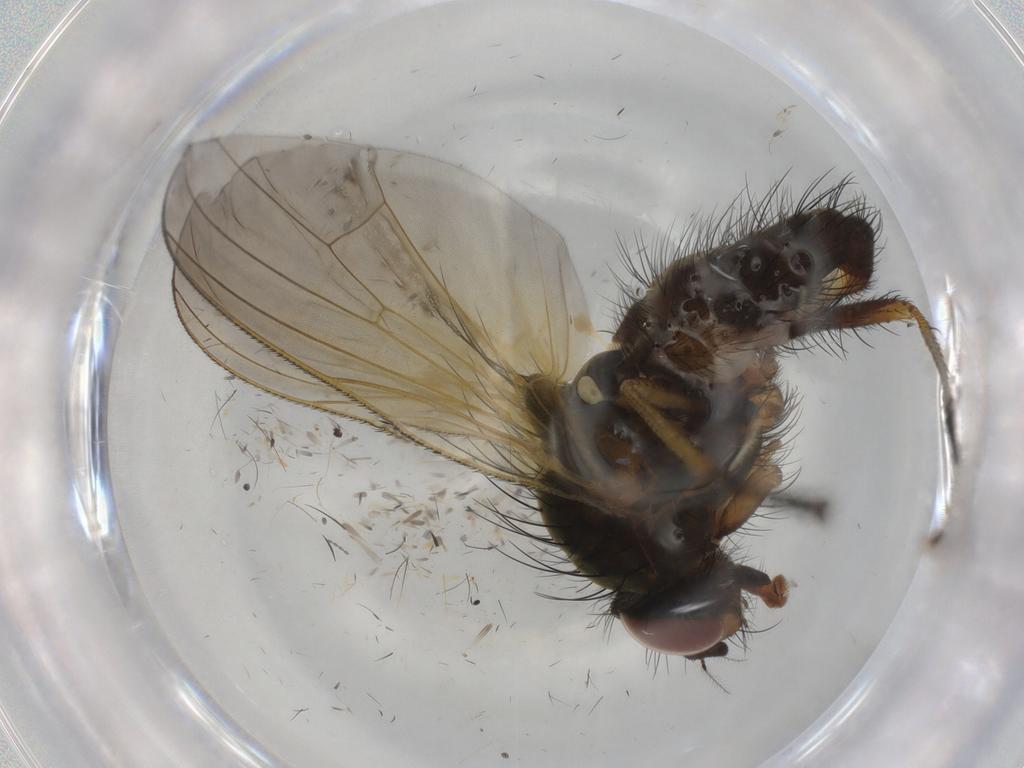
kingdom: Animalia
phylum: Arthropoda
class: Insecta
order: Diptera
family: Anthomyiidae
